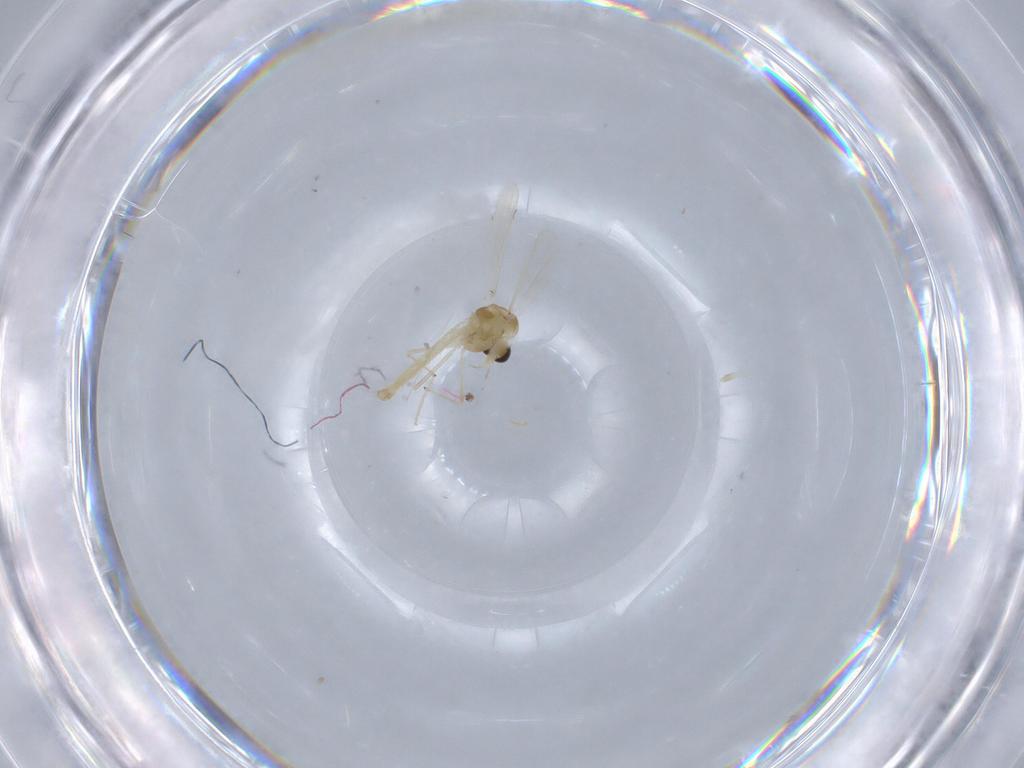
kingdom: Animalia
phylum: Arthropoda
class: Insecta
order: Diptera
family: Chironomidae
